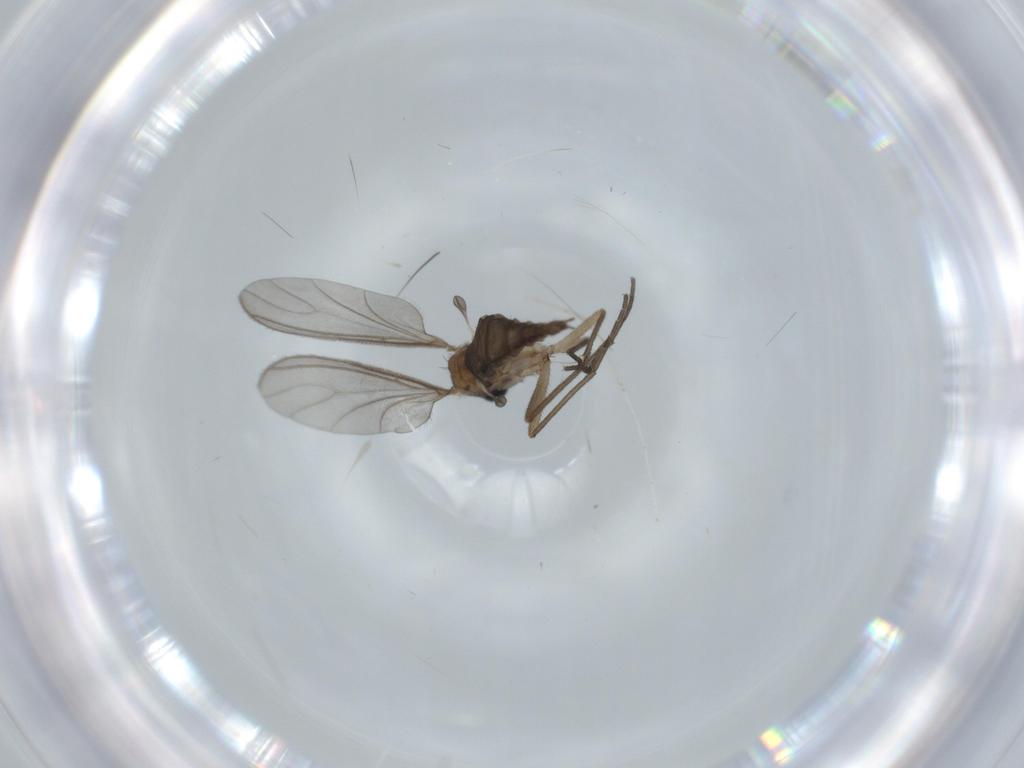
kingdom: Animalia
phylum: Arthropoda
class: Insecta
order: Diptera
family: Sciaridae
